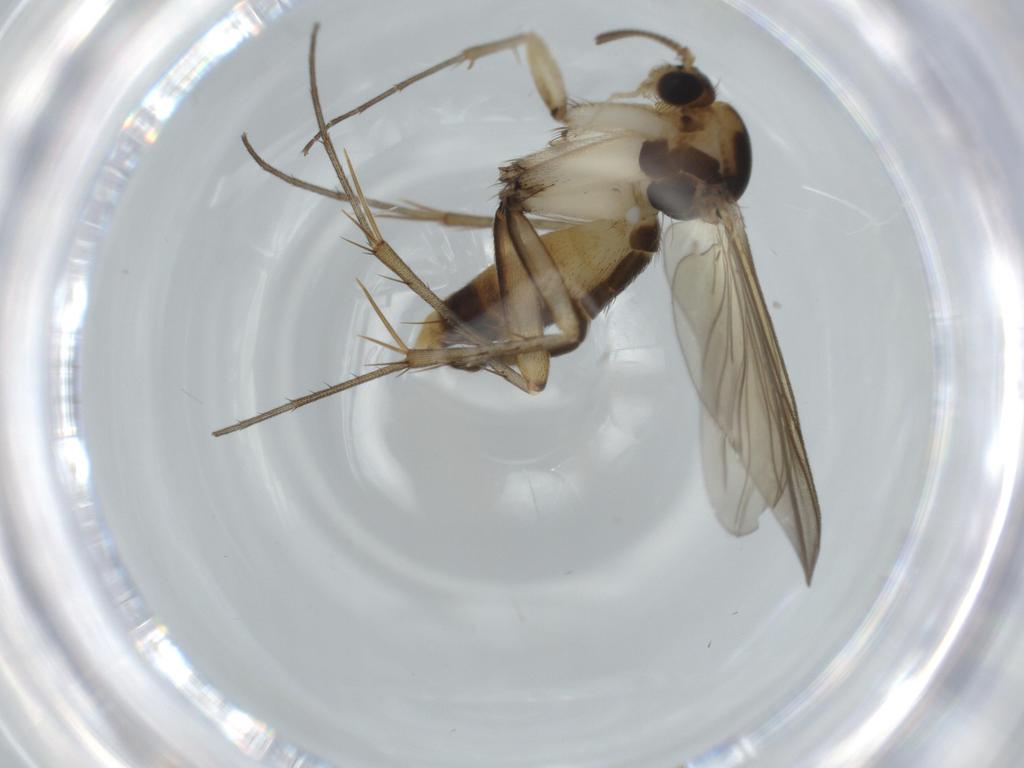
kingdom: Animalia
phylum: Arthropoda
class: Insecta
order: Diptera
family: Mycetophilidae
